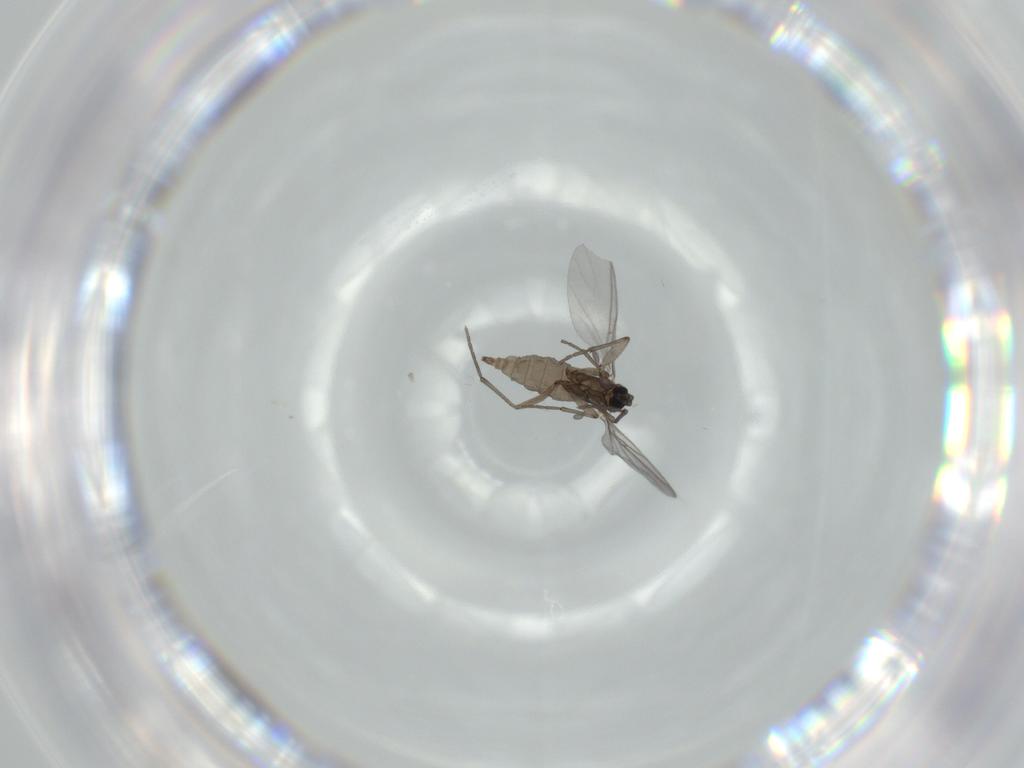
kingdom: Animalia
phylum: Arthropoda
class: Insecta
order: Diptera
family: Sciaridae
